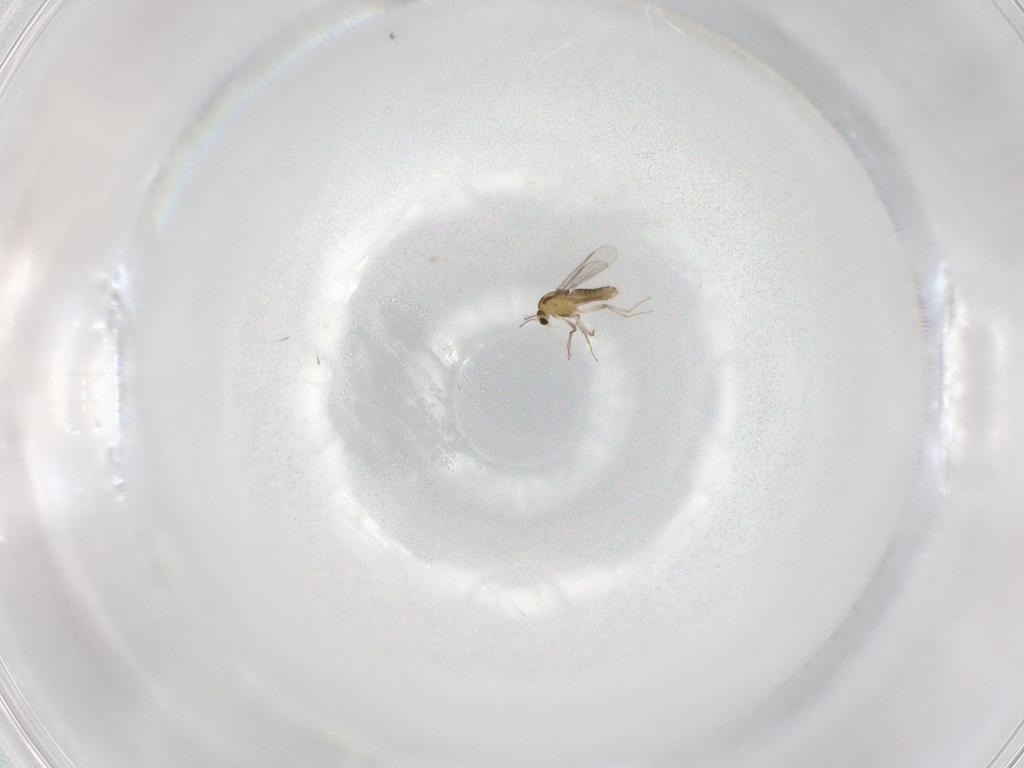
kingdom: Animalia
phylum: Arthropoda
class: Insecta
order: Diptera
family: Chironomidae
